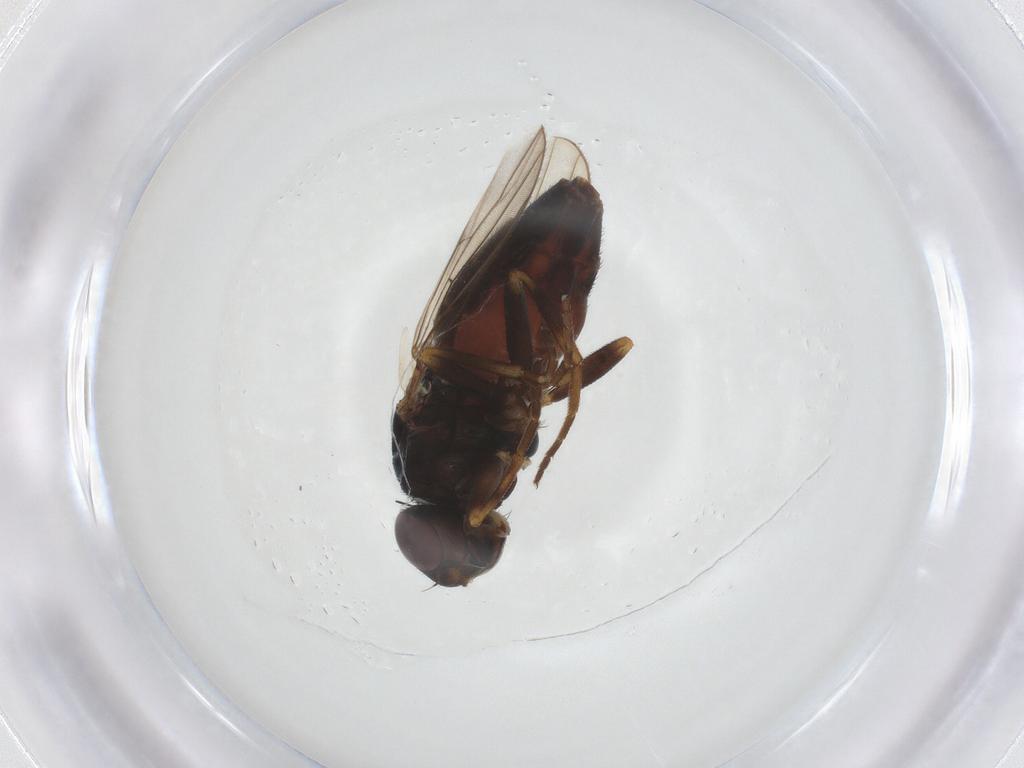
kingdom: Animalia
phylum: Arthropoda
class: Insecta
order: Diptera
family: Chloropidae
